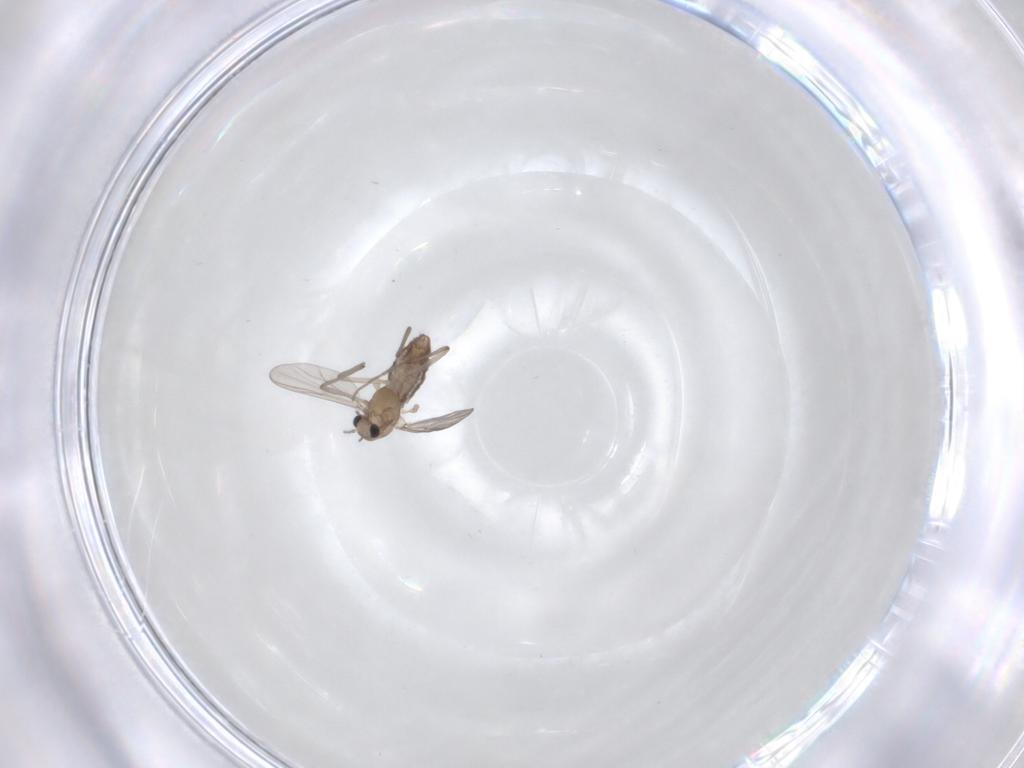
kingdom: Animalia
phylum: Arthropoda
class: Insecta
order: Diptera
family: Chironomidae
